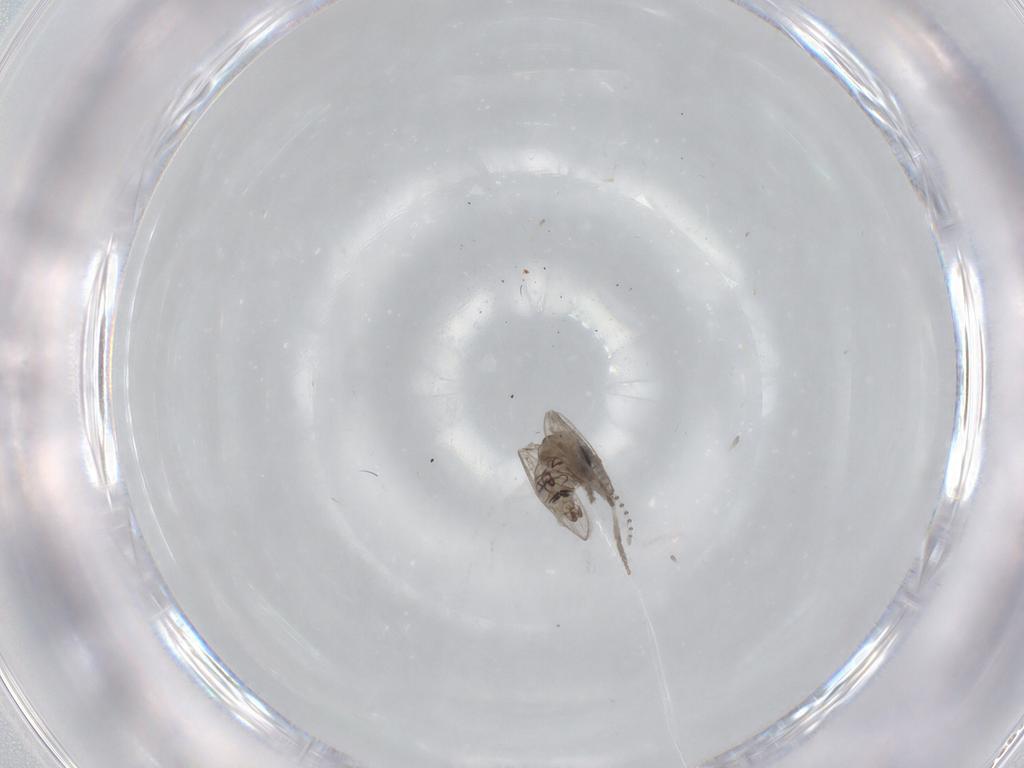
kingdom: Animalia
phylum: Arthropoda
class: Insecta
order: Diptera
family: Psychodidae
